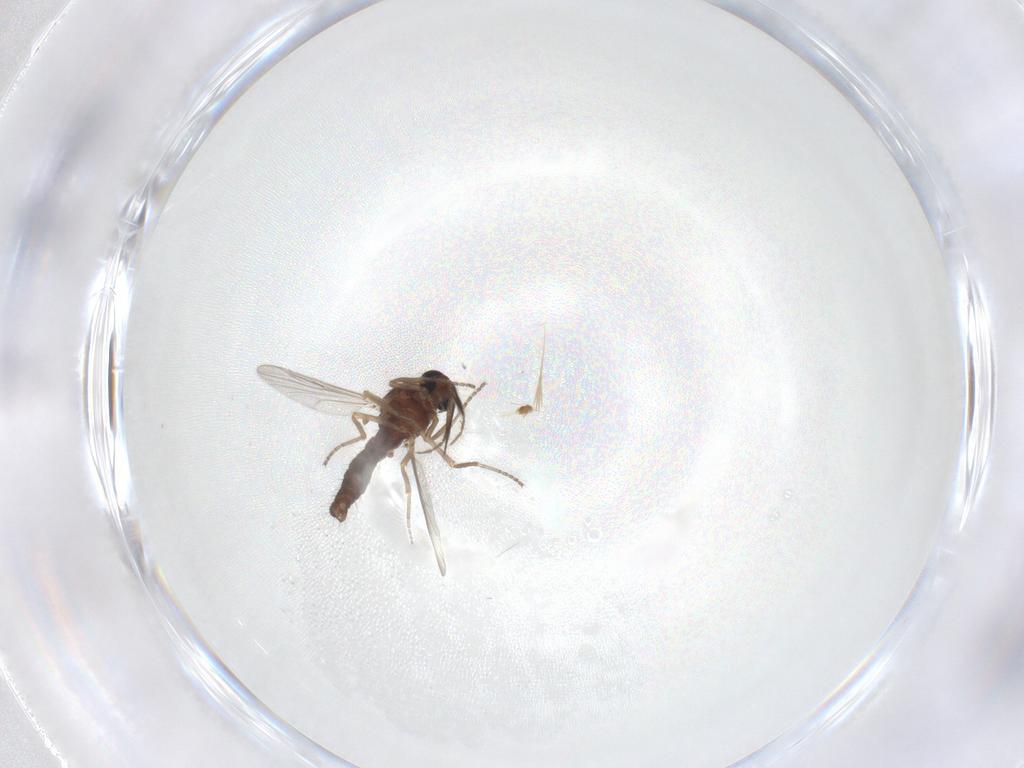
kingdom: Animalia
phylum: Arthropoda
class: Insecta
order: Diptera
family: Ceratopogonidae
